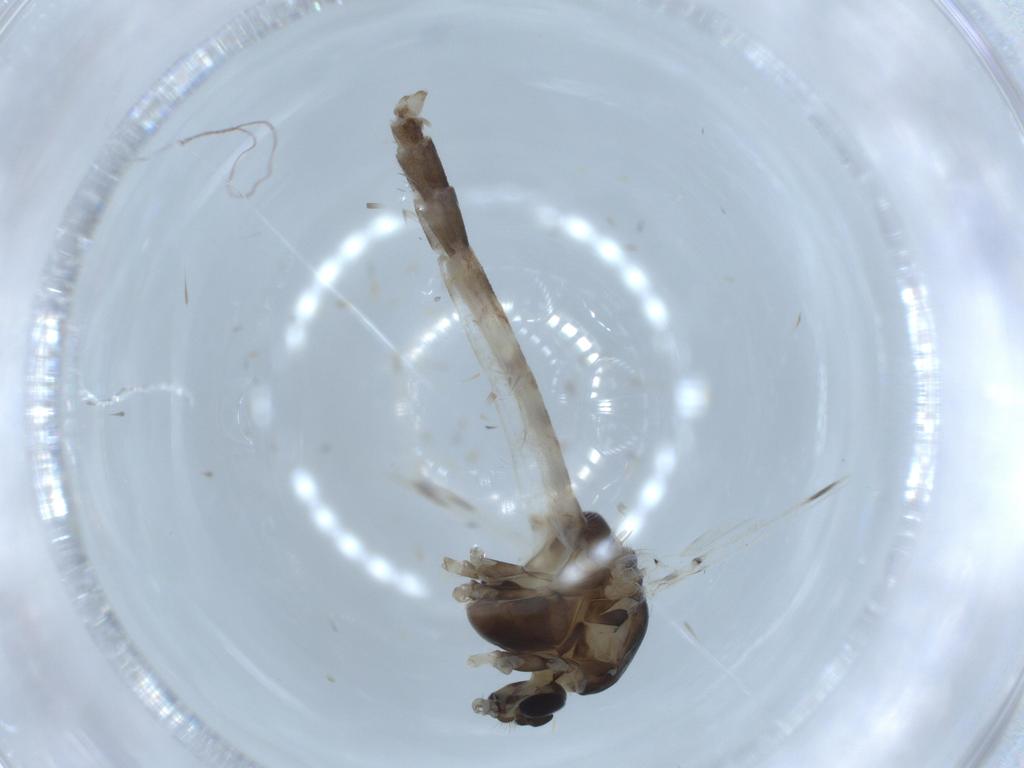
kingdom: Animalia
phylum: Arthropoda
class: Insecta
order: Diptera
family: Chironomidae
